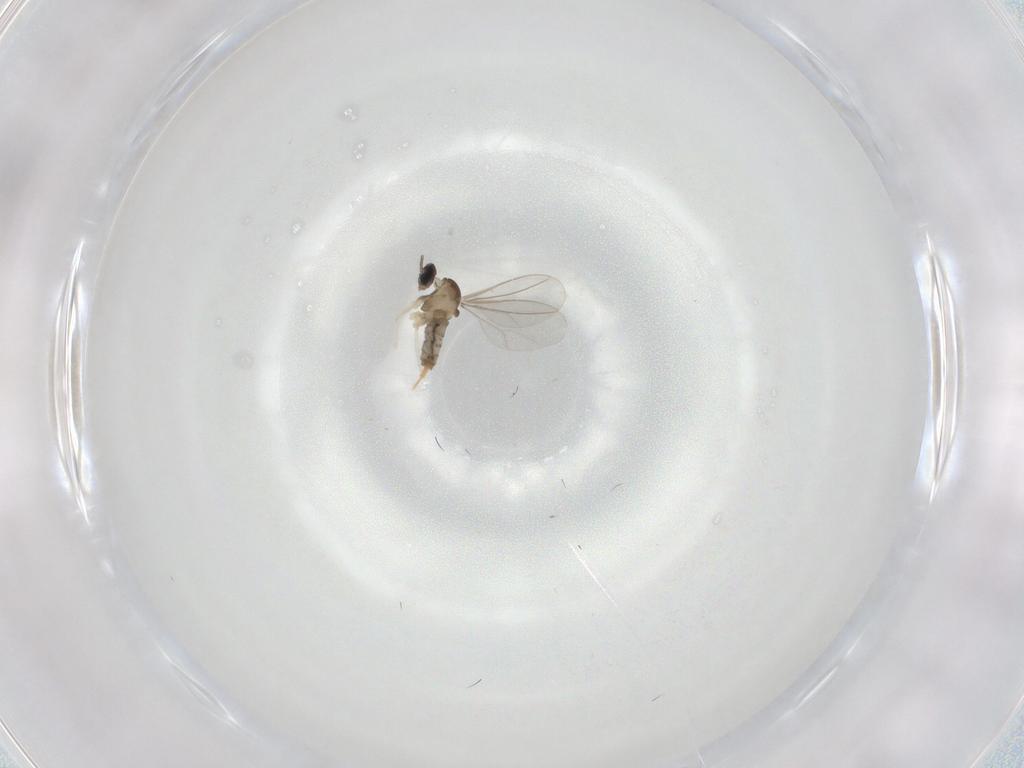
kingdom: Animalia
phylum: Arthropoda
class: Insecta
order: Diptera
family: Cecidomyiidae
